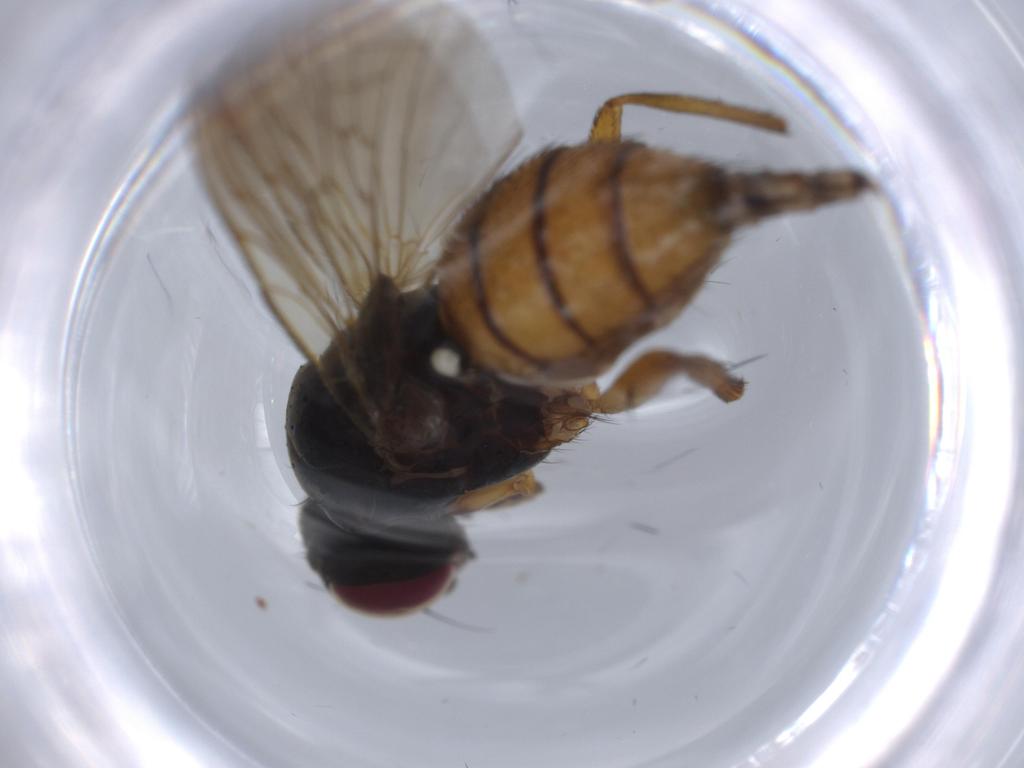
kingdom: Animalia
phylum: Arthropoda
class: Insecta
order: Diptera
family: Anthomyiidae
